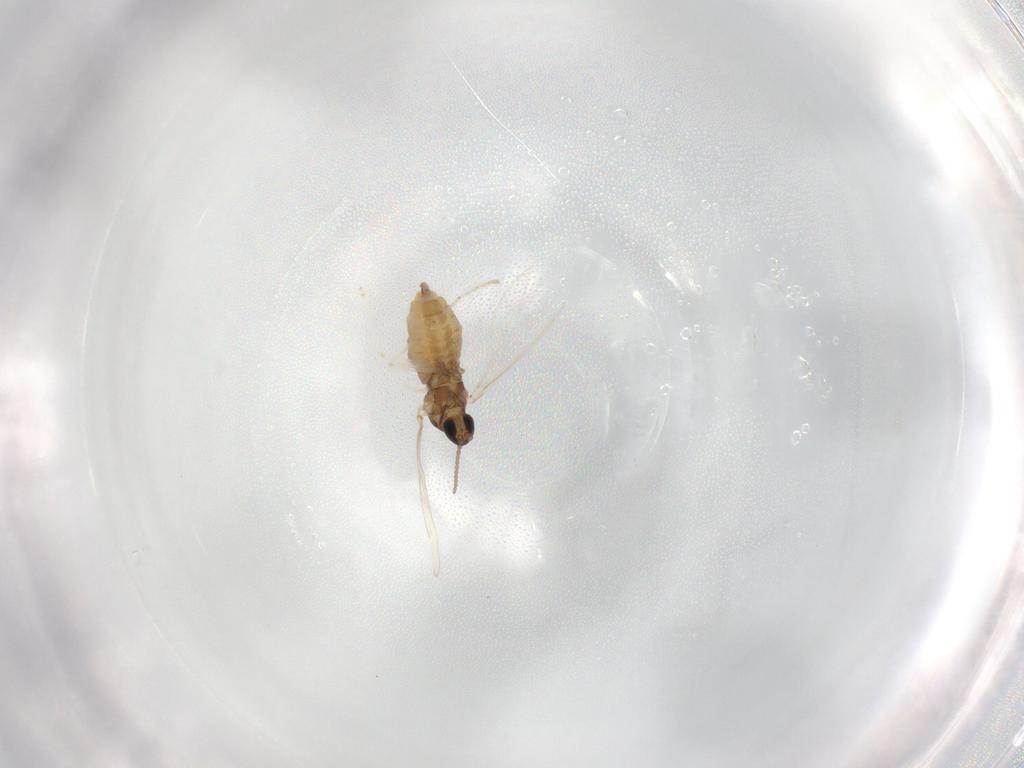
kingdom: Animalia
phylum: Arthropoda
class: Insecta
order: Diptera
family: Cecidomyiidae
